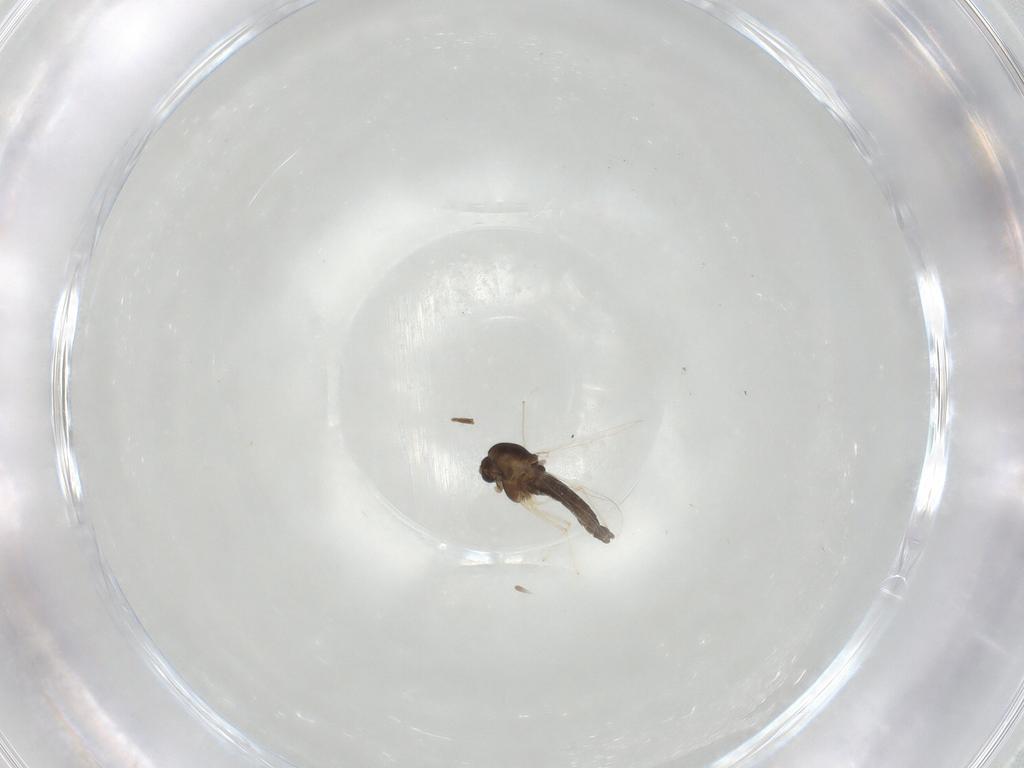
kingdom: Animalia
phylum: Arthropoda
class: Insecta
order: Diptera
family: Chironomidae
